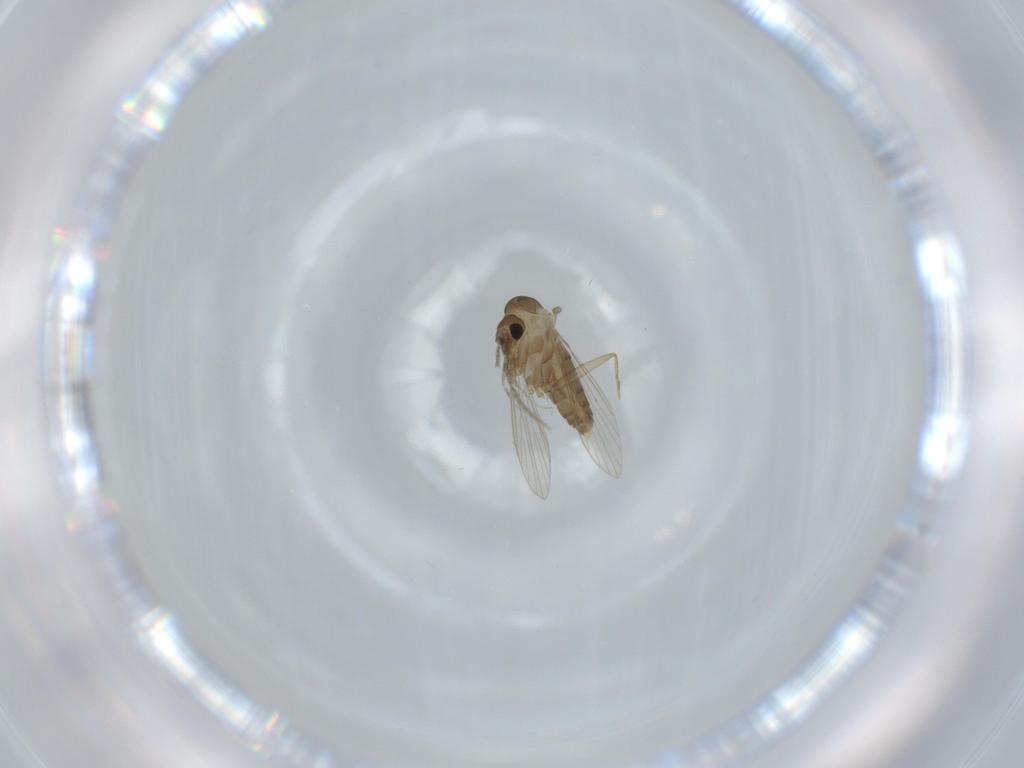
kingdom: Animalia
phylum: Arthropoda
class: Insecta
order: Diptera
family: Psychodidae
